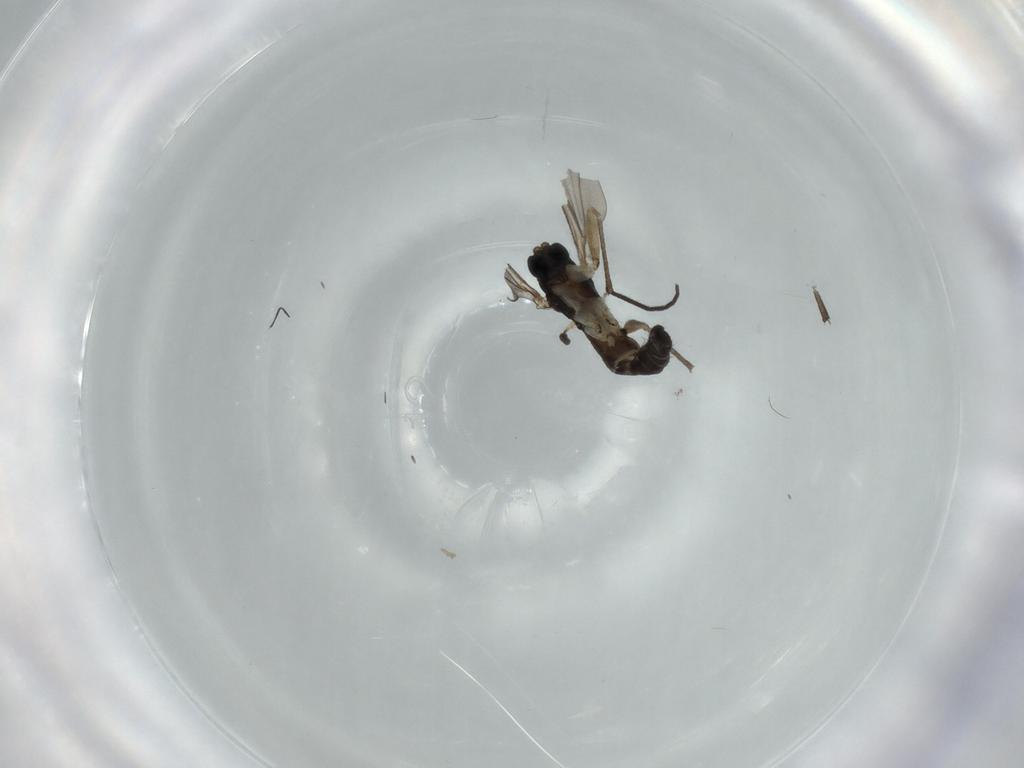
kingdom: Animalia
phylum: Arthropoda
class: Insecta
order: Diptera
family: Sciaridae
